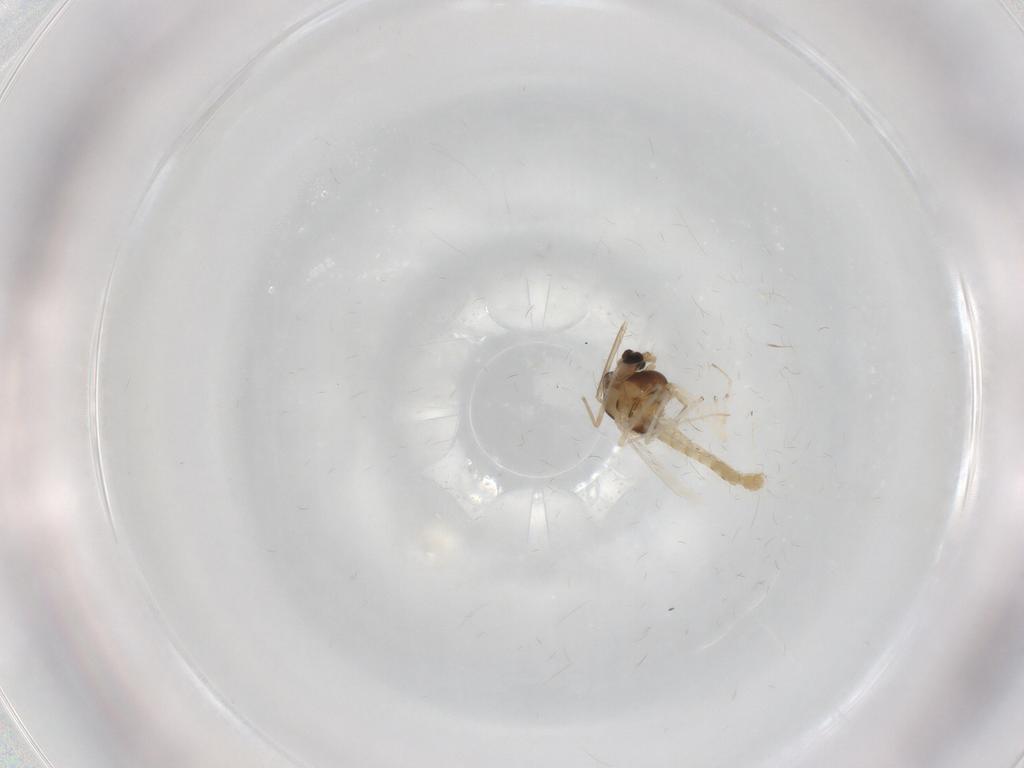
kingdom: Animalia
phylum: Arthropoda
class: Insecta
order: Diptera
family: Chironomidae
